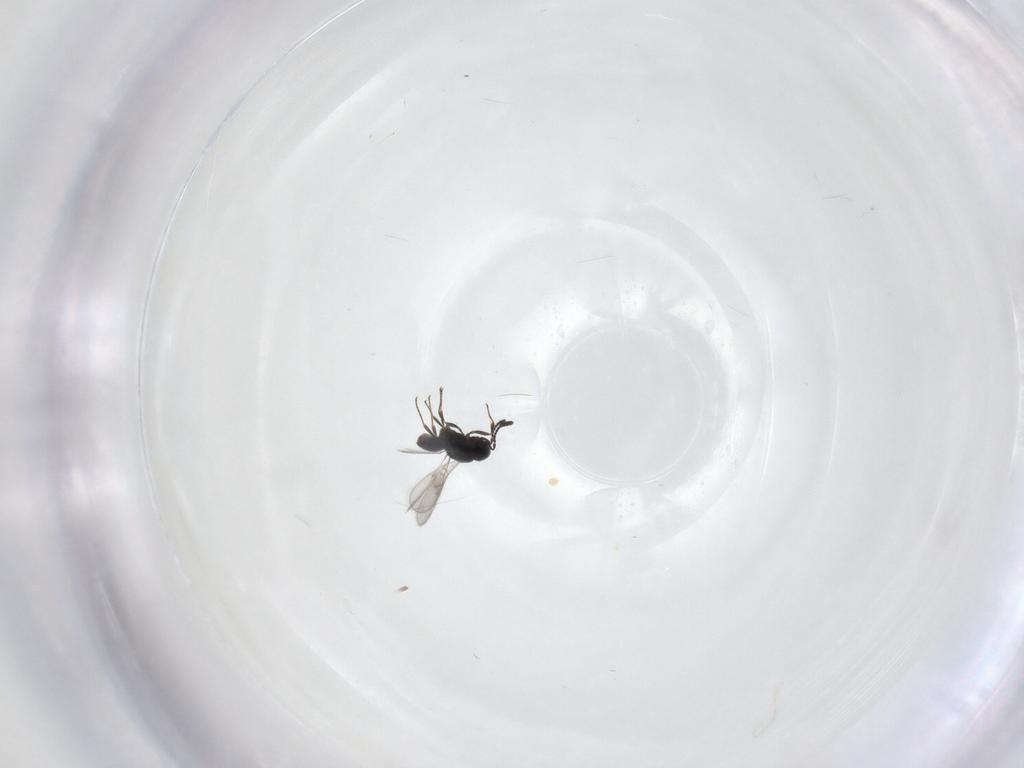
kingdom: Animalia
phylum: Arthropoda
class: Insecta
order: Hymenoptera
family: Scelionidae
